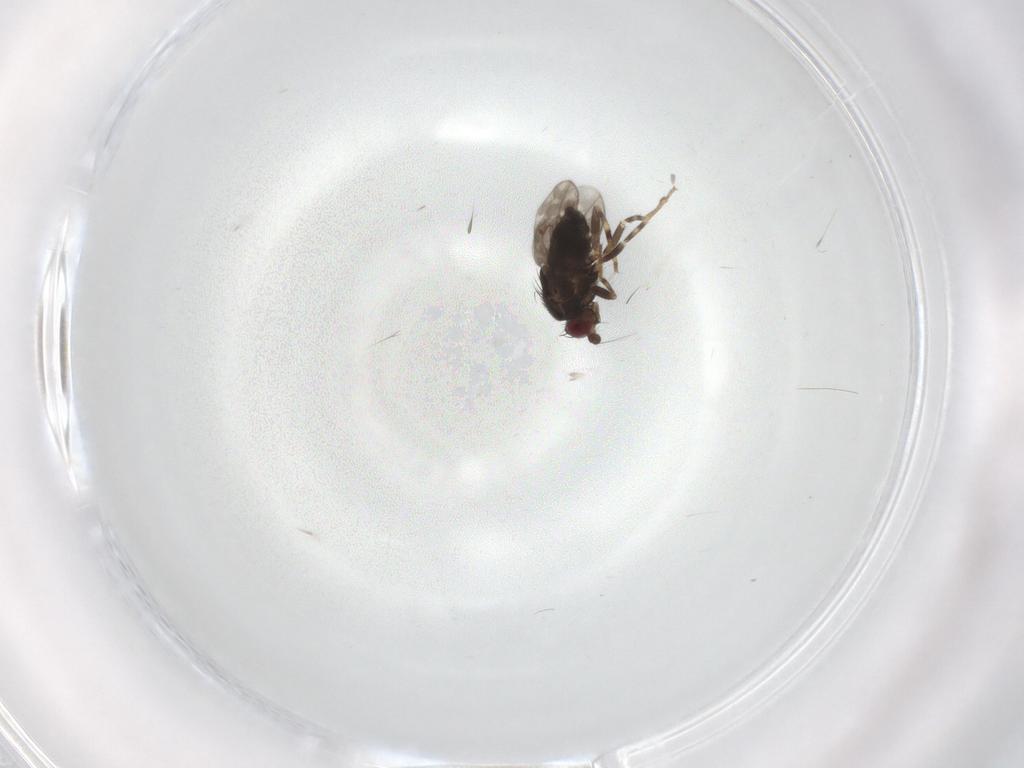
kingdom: Animalia
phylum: Arthropoda
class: Insecta
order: Diptera
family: Sphaeroceridae
